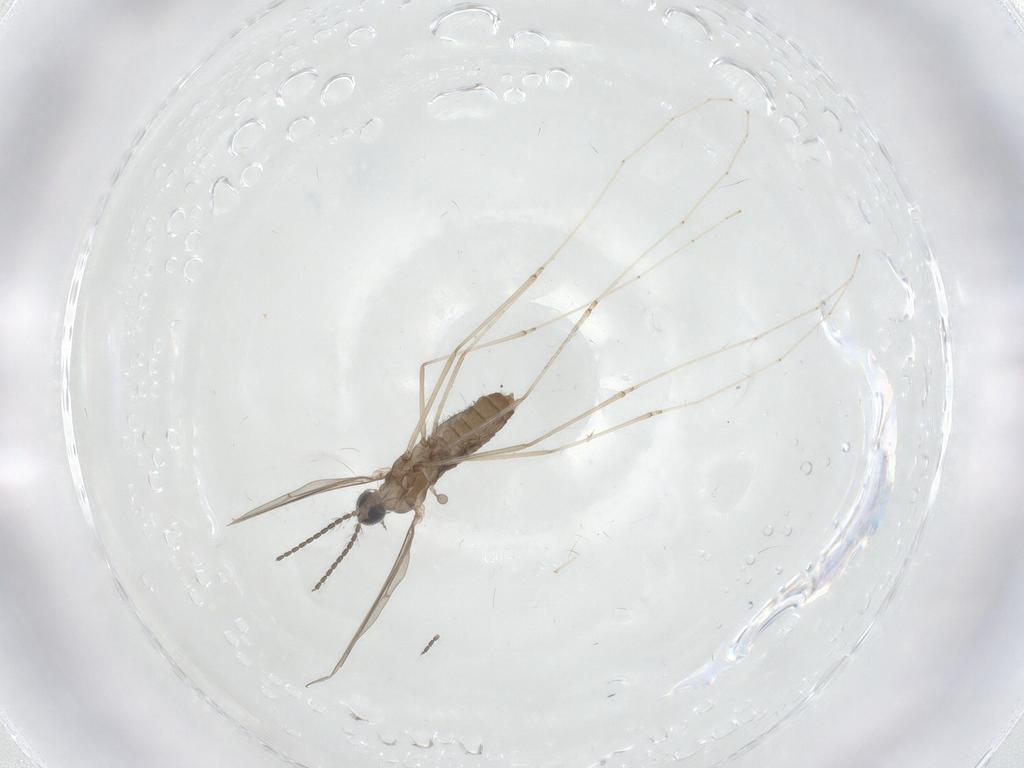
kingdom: Animalia
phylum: Arthropoda
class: Insecta
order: Diptera
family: Cecidomyiidae
